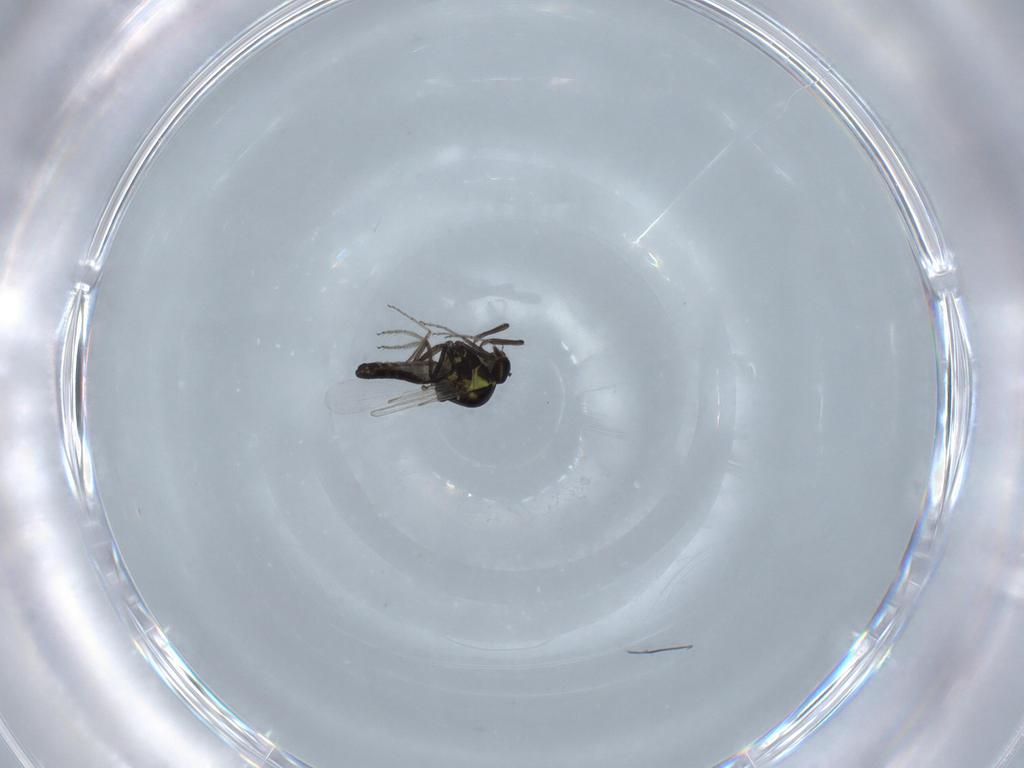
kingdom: Animalia
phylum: Arthropoda
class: Insecta
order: Diptera
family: Ceratopogonidae
